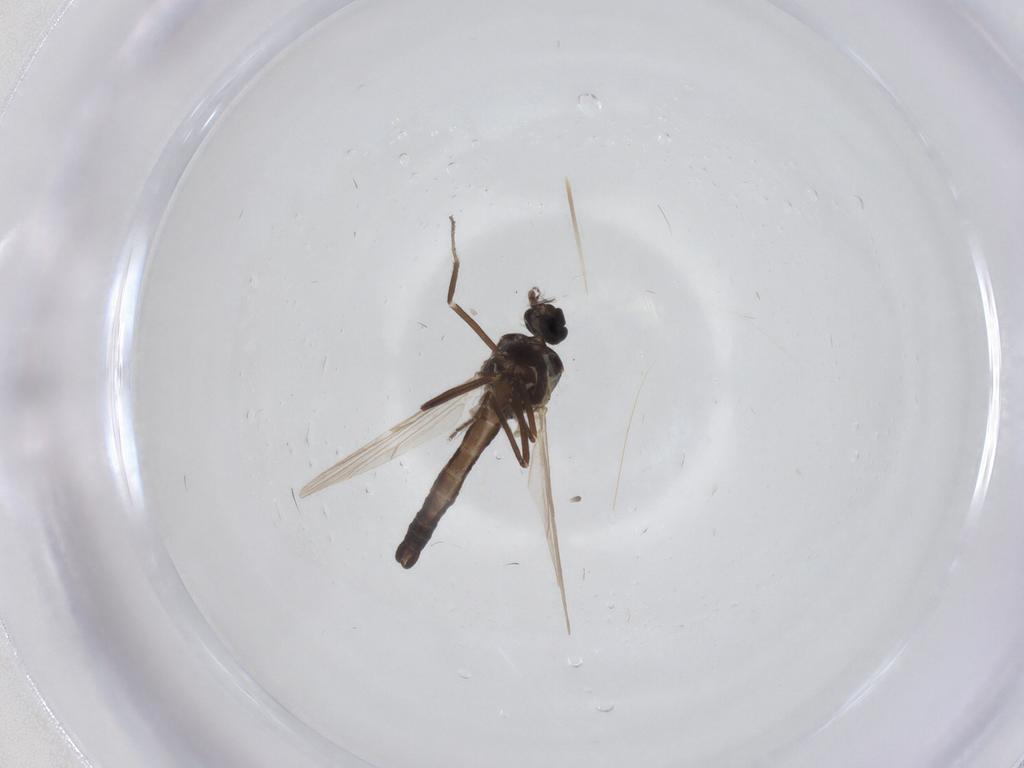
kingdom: Animalia
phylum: Arthropoda
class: Insecta
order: Diptera
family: Ceratopogonidae
